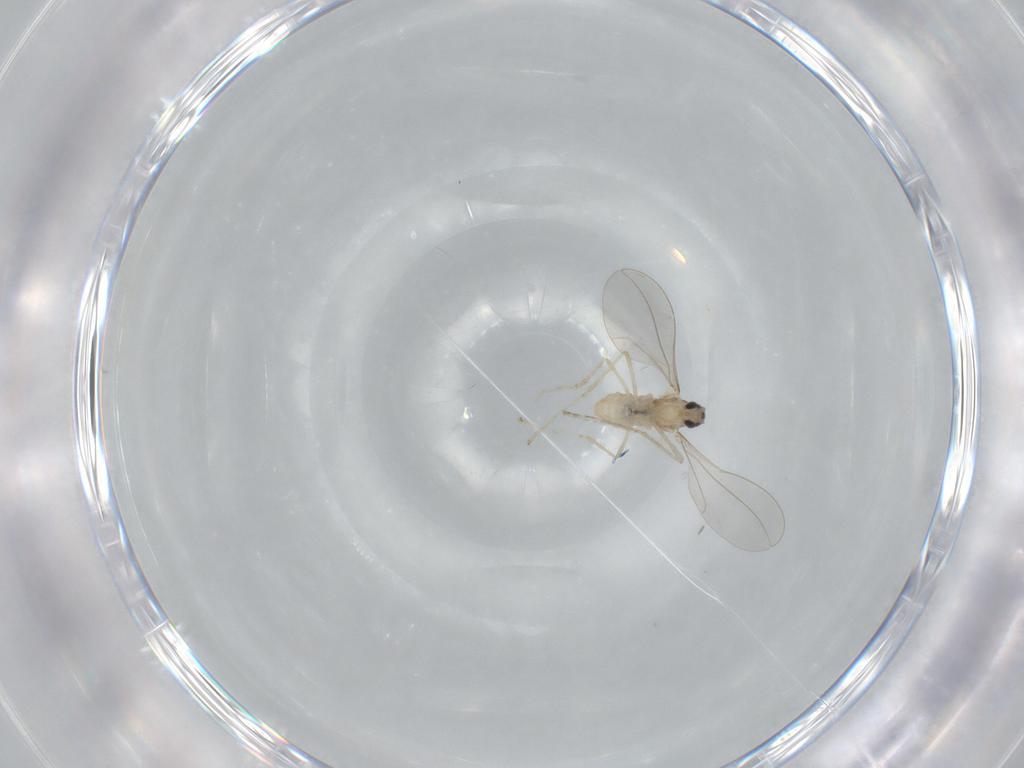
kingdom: Animalia
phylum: Arthropoda
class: Insecta
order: Diptera
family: Cecidomyiidae
